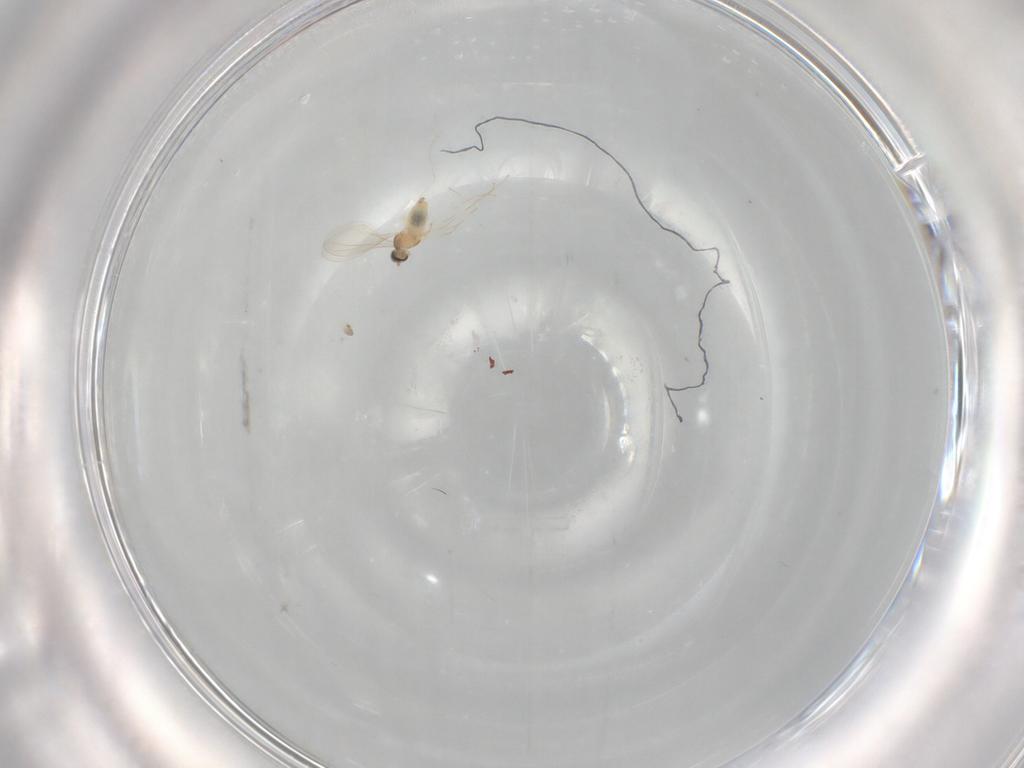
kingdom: Animalia
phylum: Arthropoda
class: Insecta
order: Diptera
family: Cecidomyiidae
